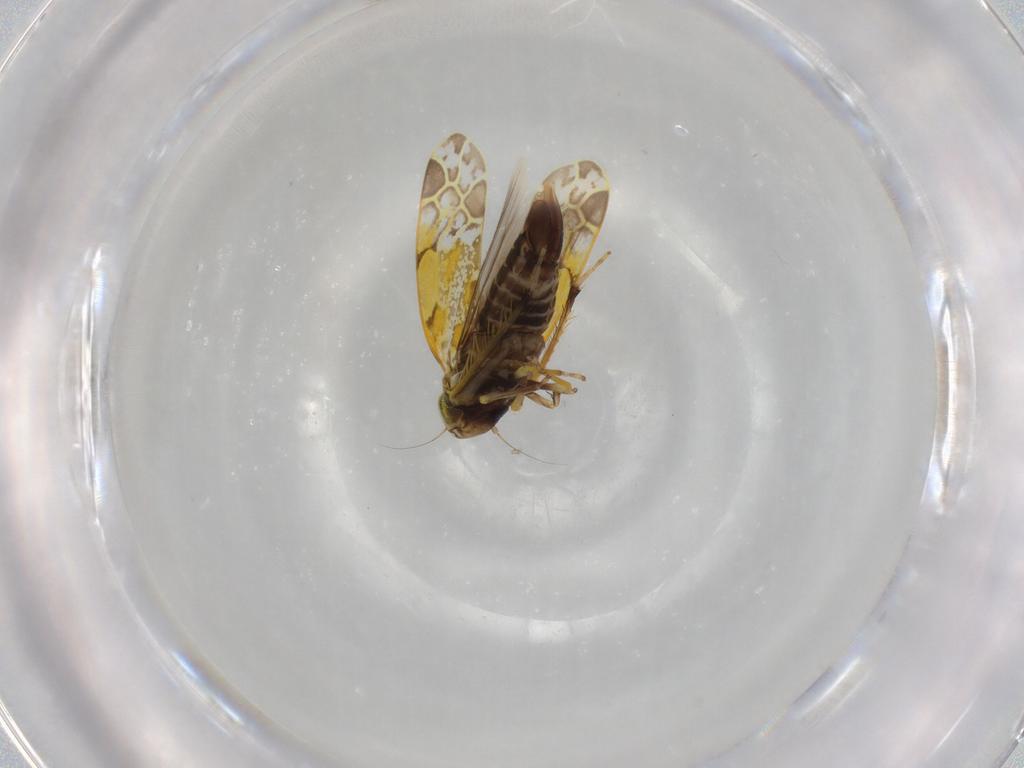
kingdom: Animalia
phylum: Arthropoda
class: Insecta
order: Hemiptera
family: Cicadellidae
